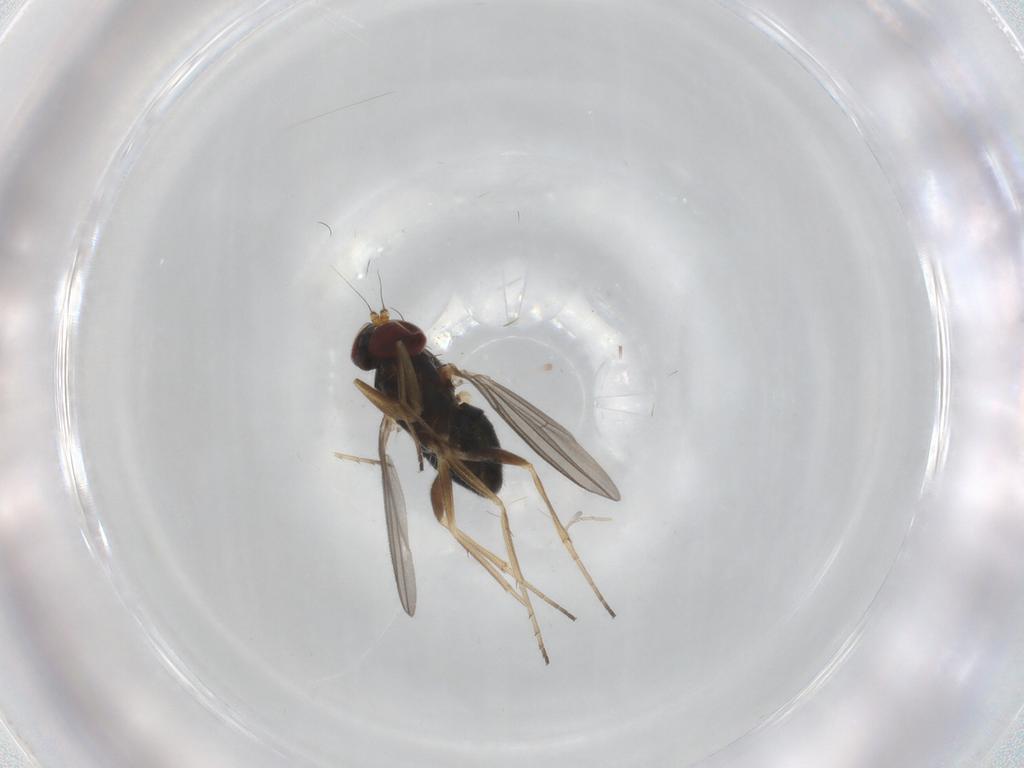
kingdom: Animalia
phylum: Arthropoda
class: Insecta
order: Diptera
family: Dolichopodidae
